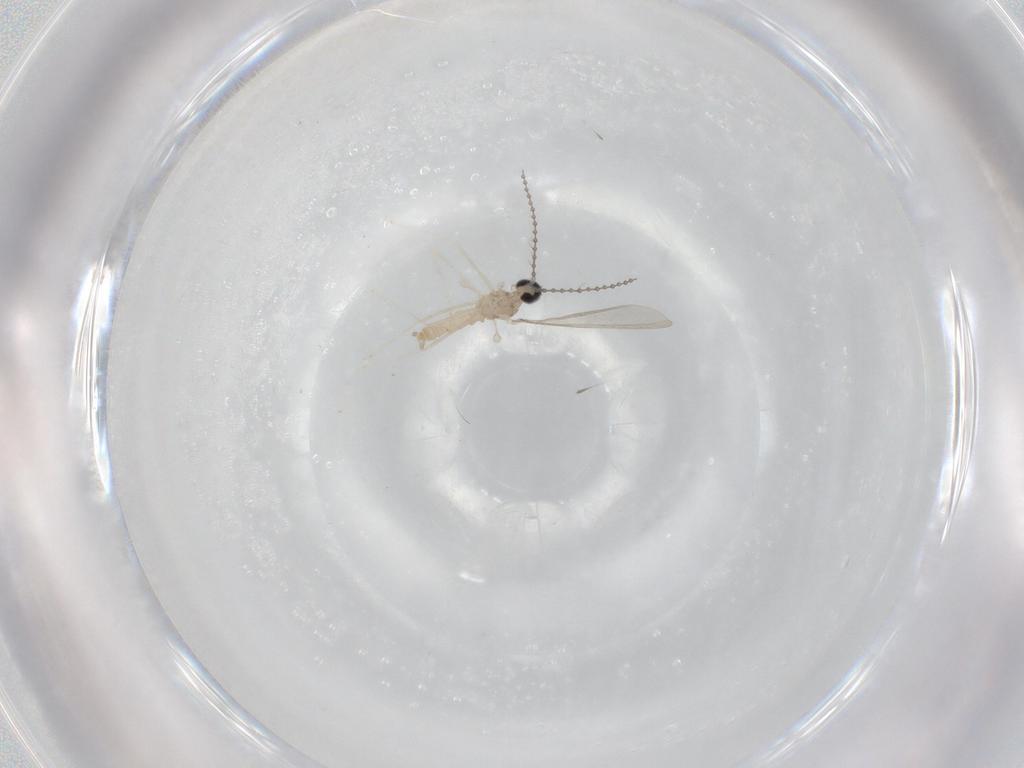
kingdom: Animalia
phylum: Arthropoda
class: Insecta
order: Diptera
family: Cecidomyiidae
